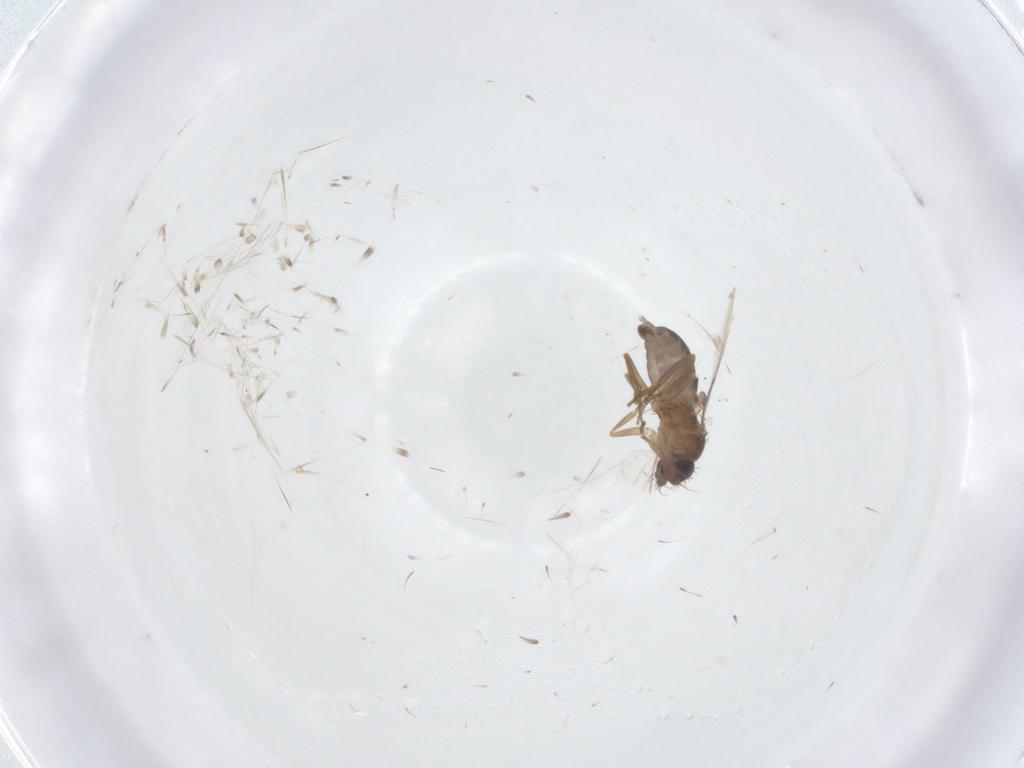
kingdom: Animalia
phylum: Arthropoda
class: Insecta
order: Diptera
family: Phoridae
